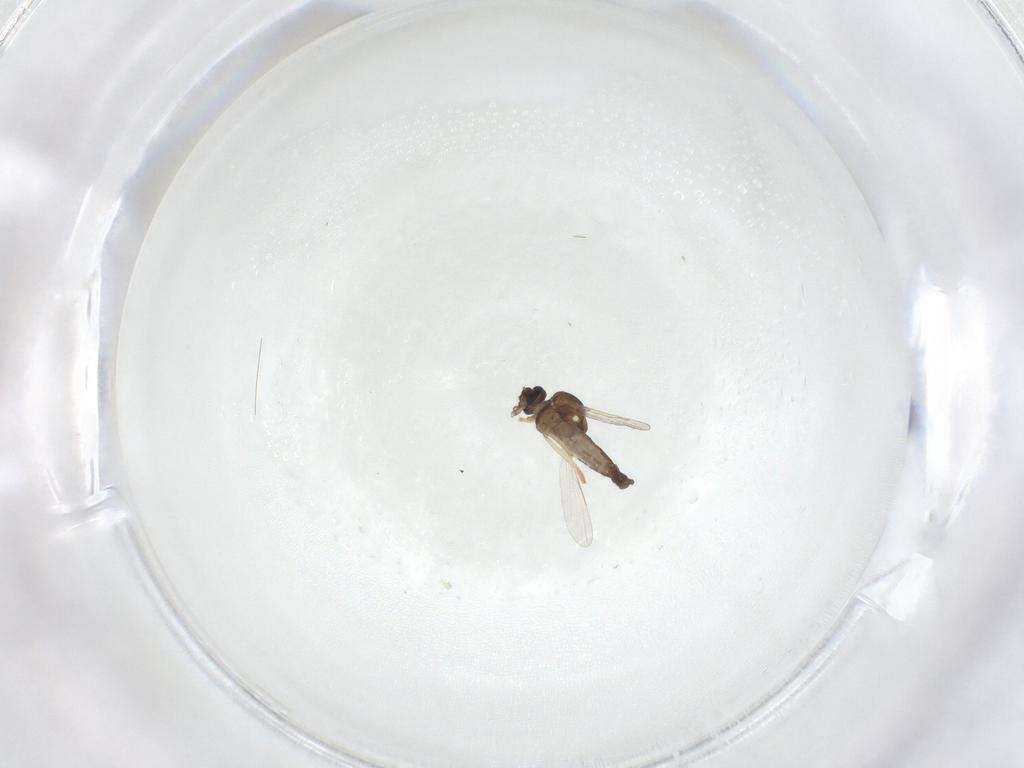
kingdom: Animalia
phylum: Arthropoda
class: Insecta
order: Diptera
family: Ceratopogonidae
